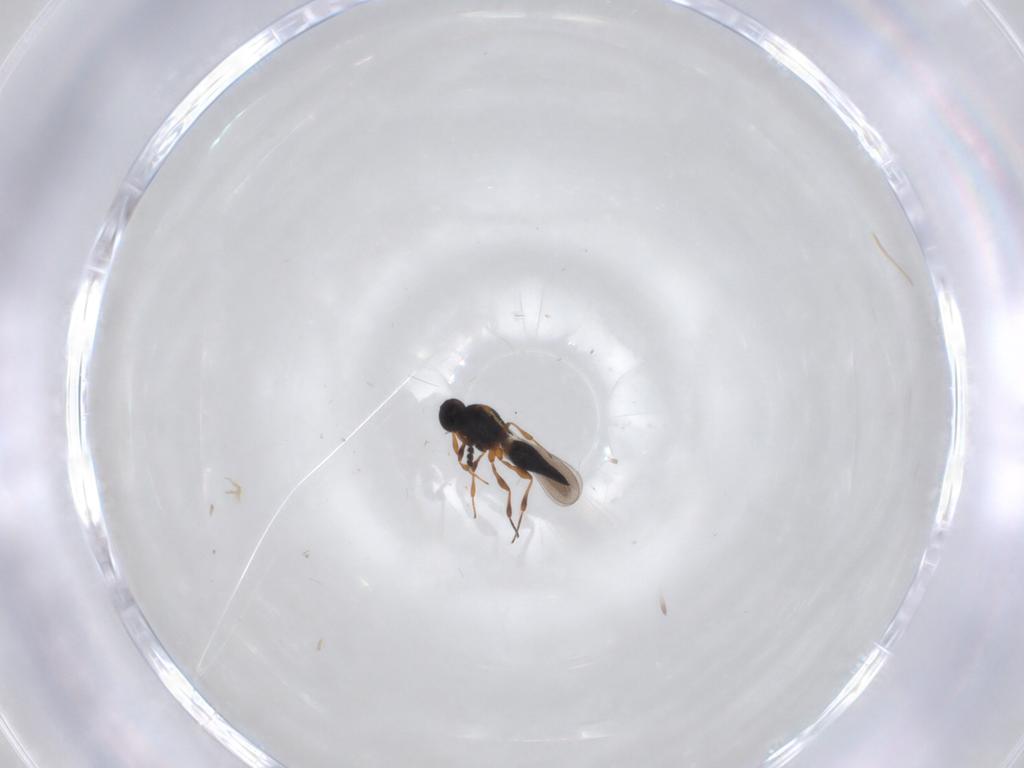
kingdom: Animalia
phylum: Arthropoda
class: Insecta
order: Hymenoptera
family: Platygastridae
